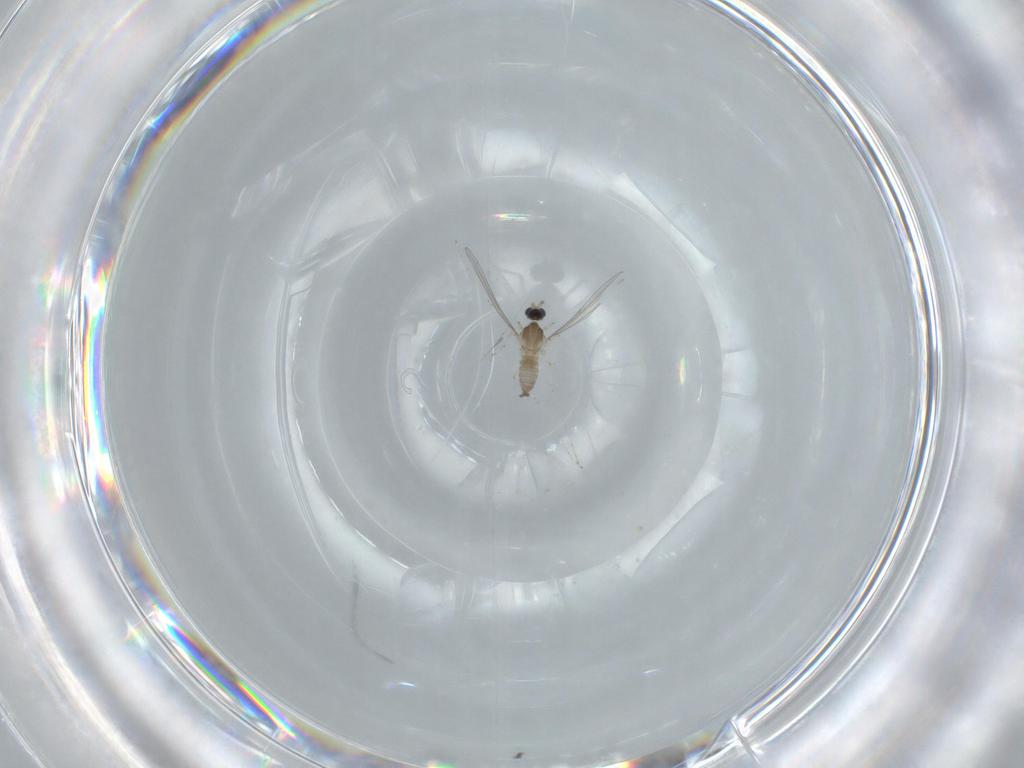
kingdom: Animalia
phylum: Arthropoda
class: Insecta
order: Diptera
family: Cecidomyiidae
